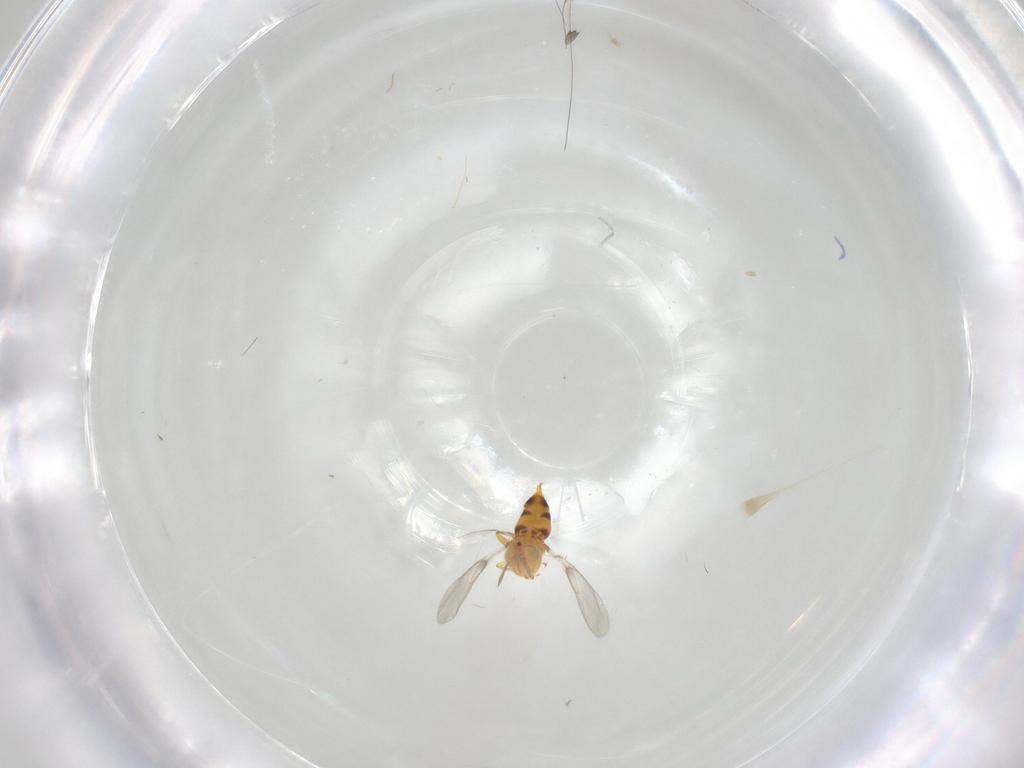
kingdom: Animalia
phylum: Arthropoda
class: Insecta
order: Hymenoptera
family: Aphelinidae
